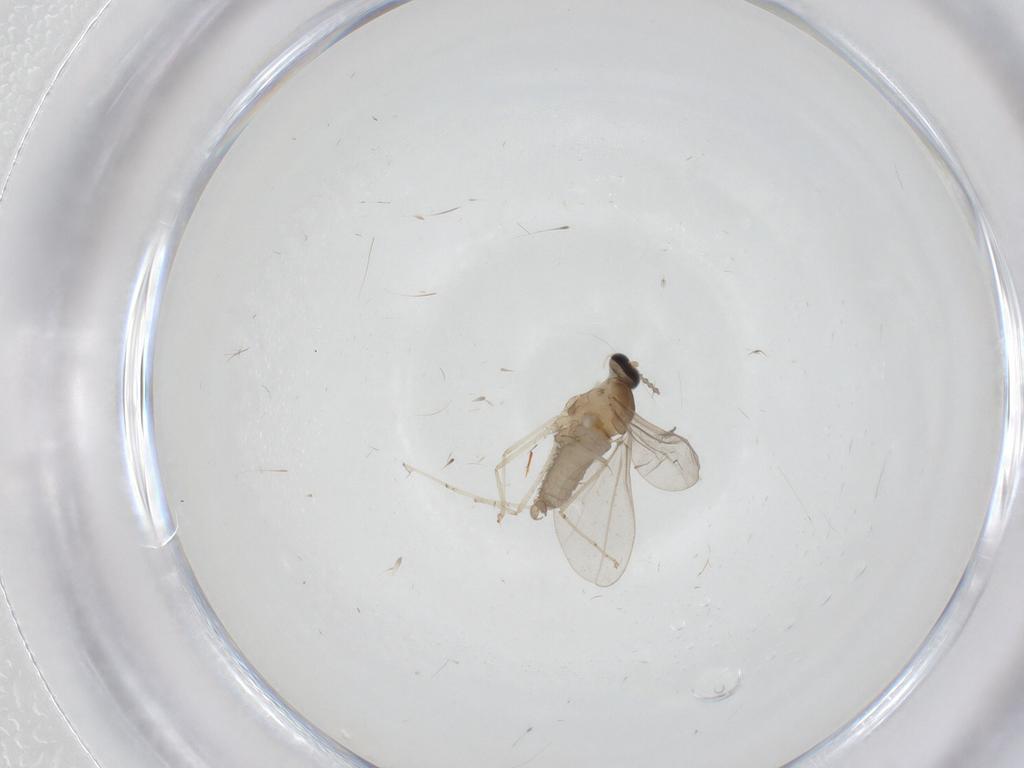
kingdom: Animalia
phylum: Arthropoda
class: Insecta
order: Diptera
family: Cecidomyiidae
